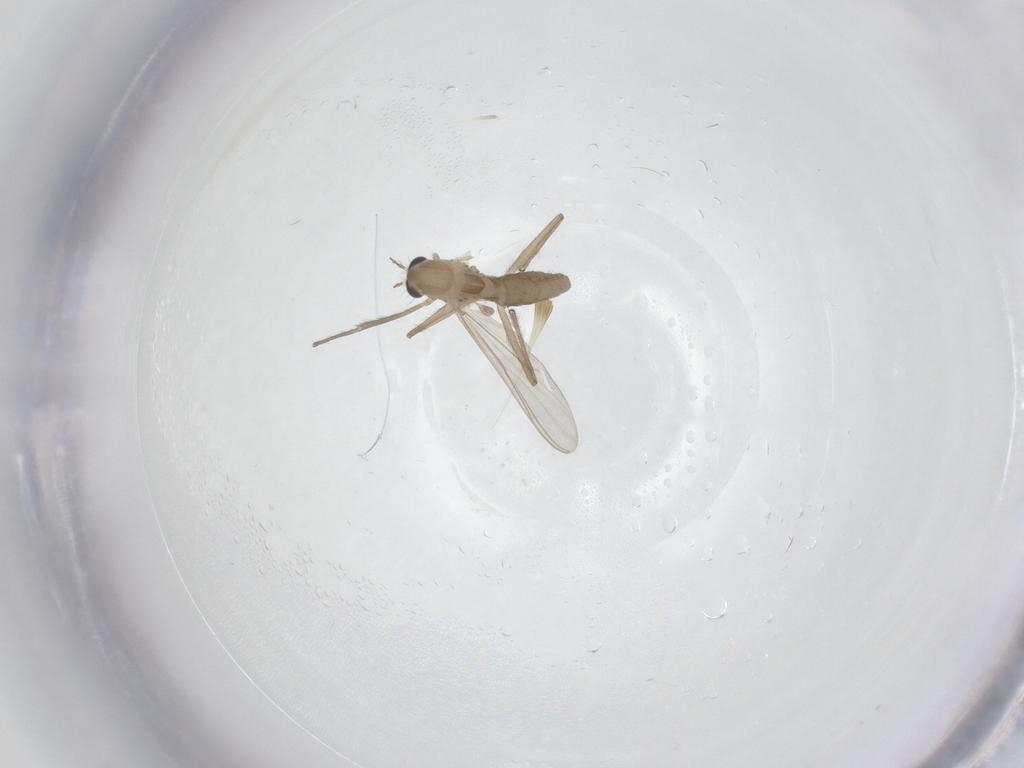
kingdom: Animalia
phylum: Arthropoda
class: Insecta
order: Diptera
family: Chironomidae
